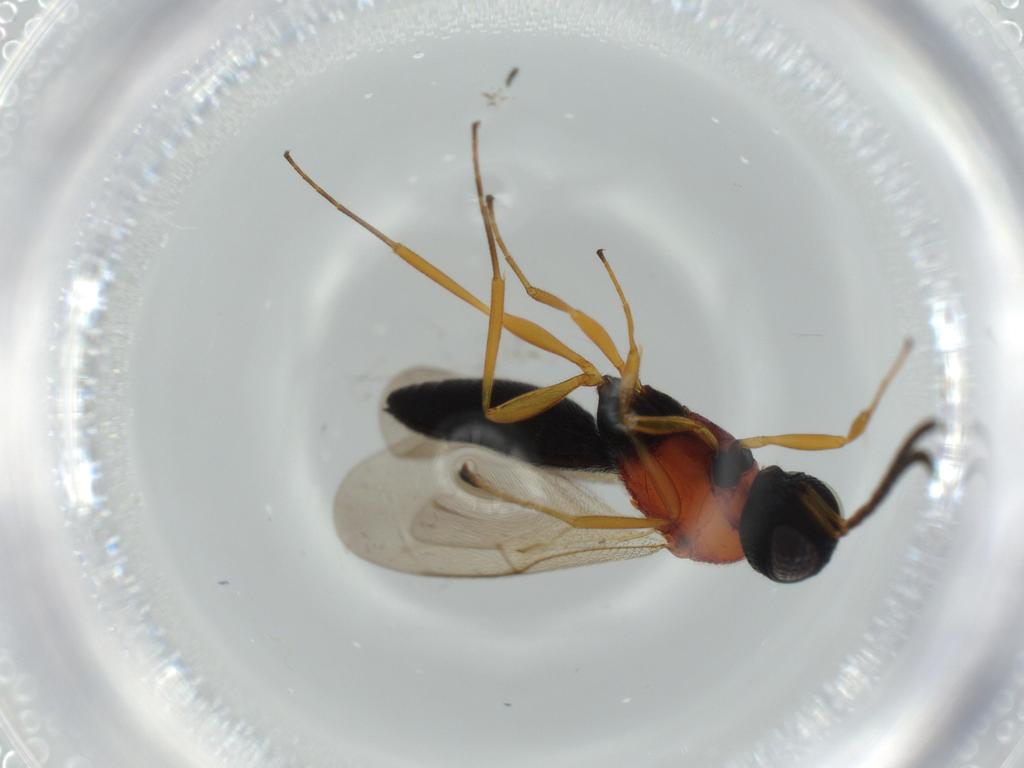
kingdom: Animalia
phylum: Arthropoda
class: Insecta
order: Hymenoptera
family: Scelionidae
